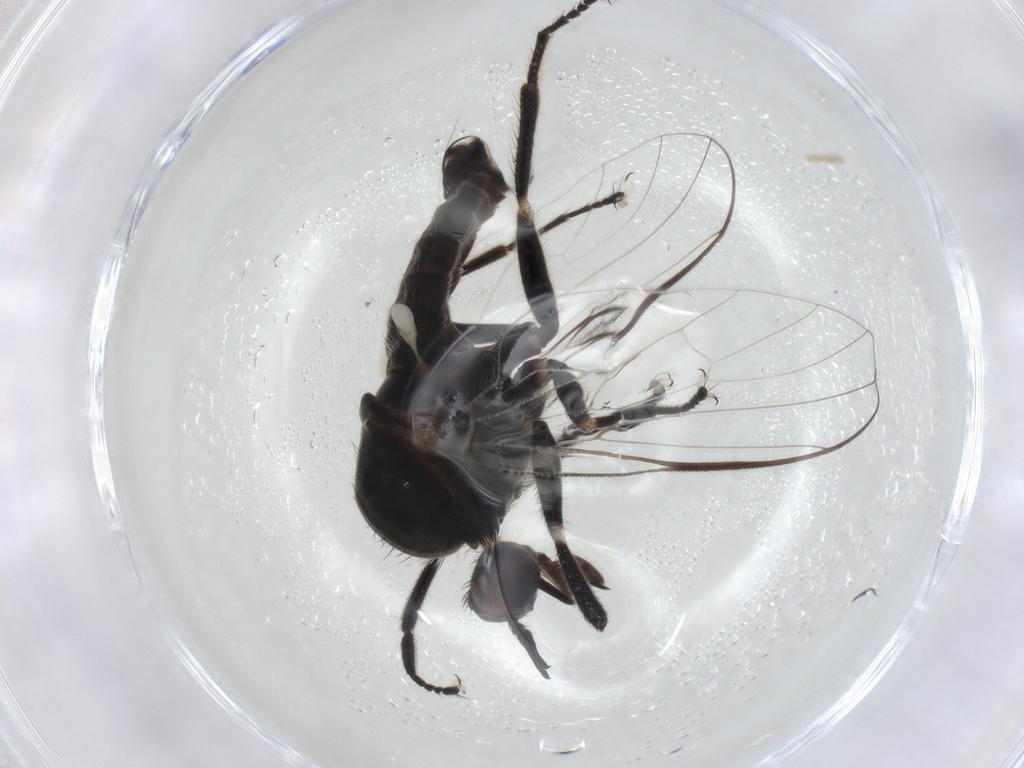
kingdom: Animalia
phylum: Arthropoda
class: Insecta
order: Diptera
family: Empididae
